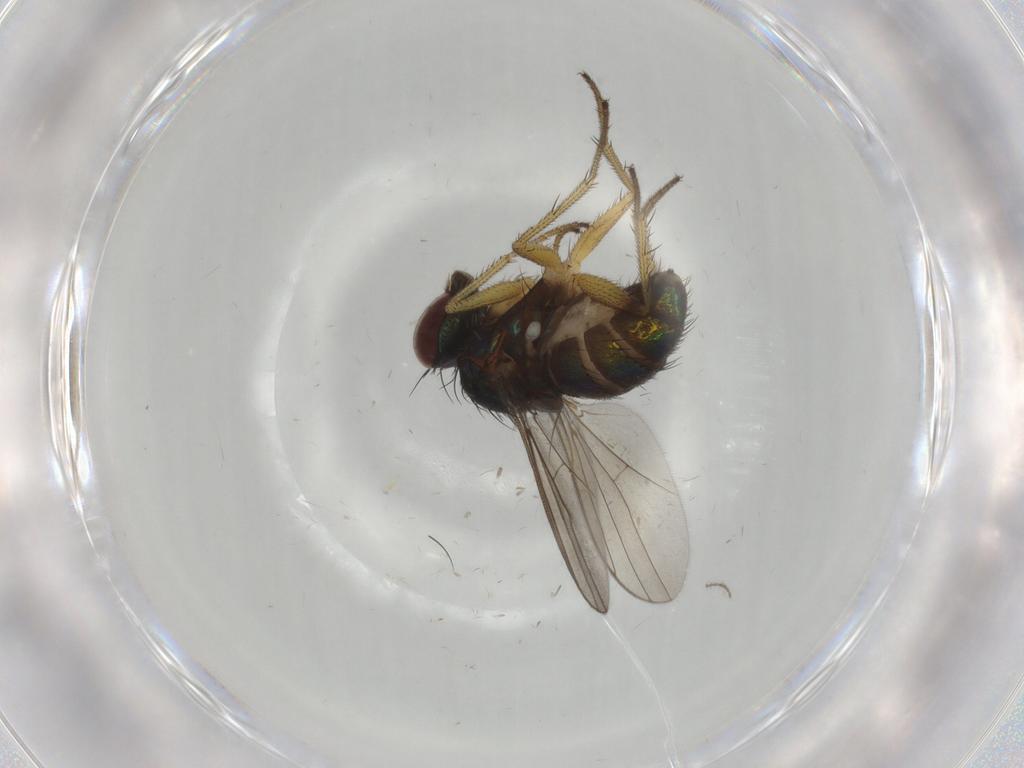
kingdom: Animalia
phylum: Arthropoda
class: Insecta
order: Diptera
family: Dolichopodidae
